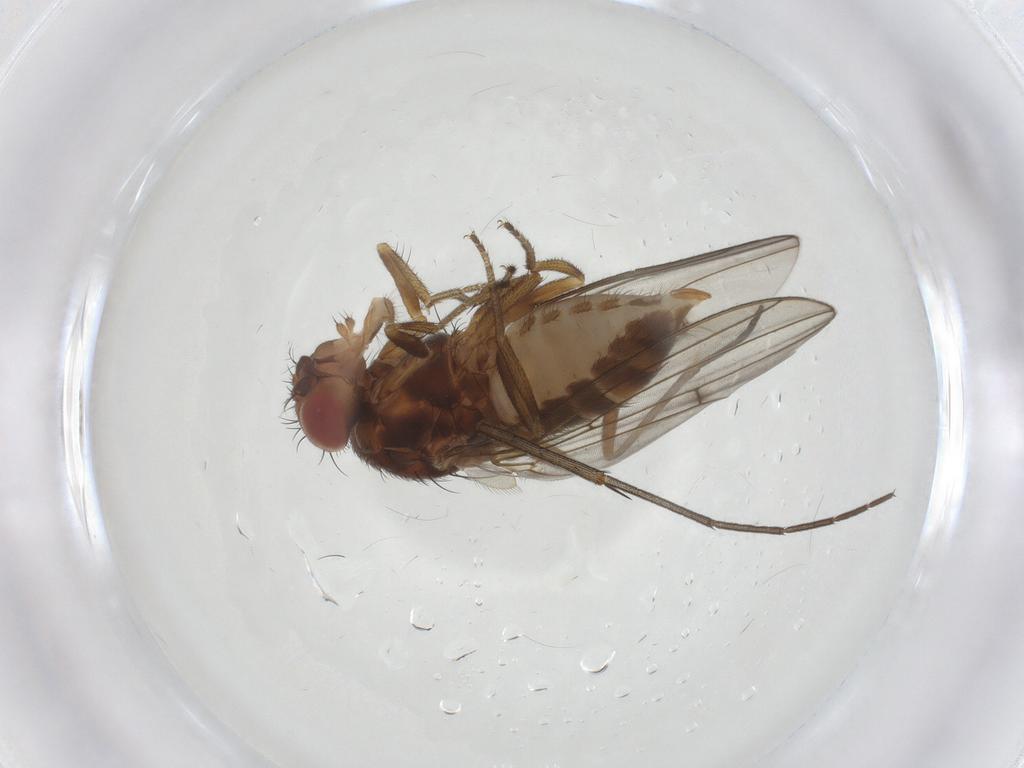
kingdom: Animalia
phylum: Arthropoda
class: Insecta
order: Diptera
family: Drosophilidae
